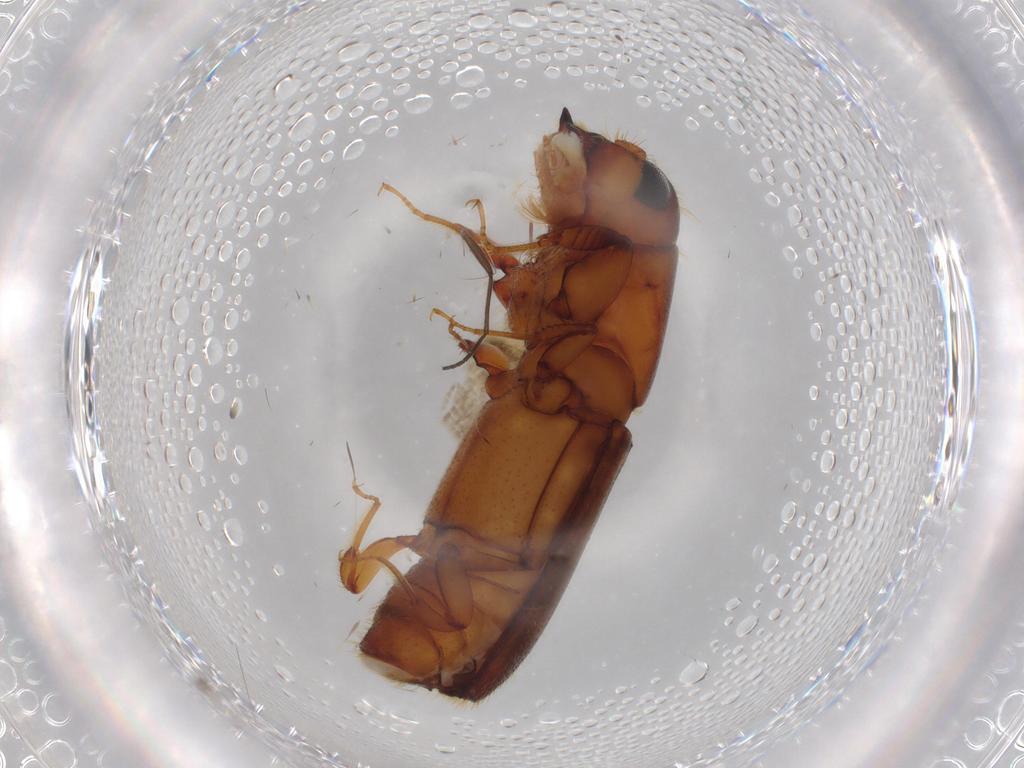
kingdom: Animalia
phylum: Arthropoda
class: Insecta
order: Coleoptera
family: Curculionidae
